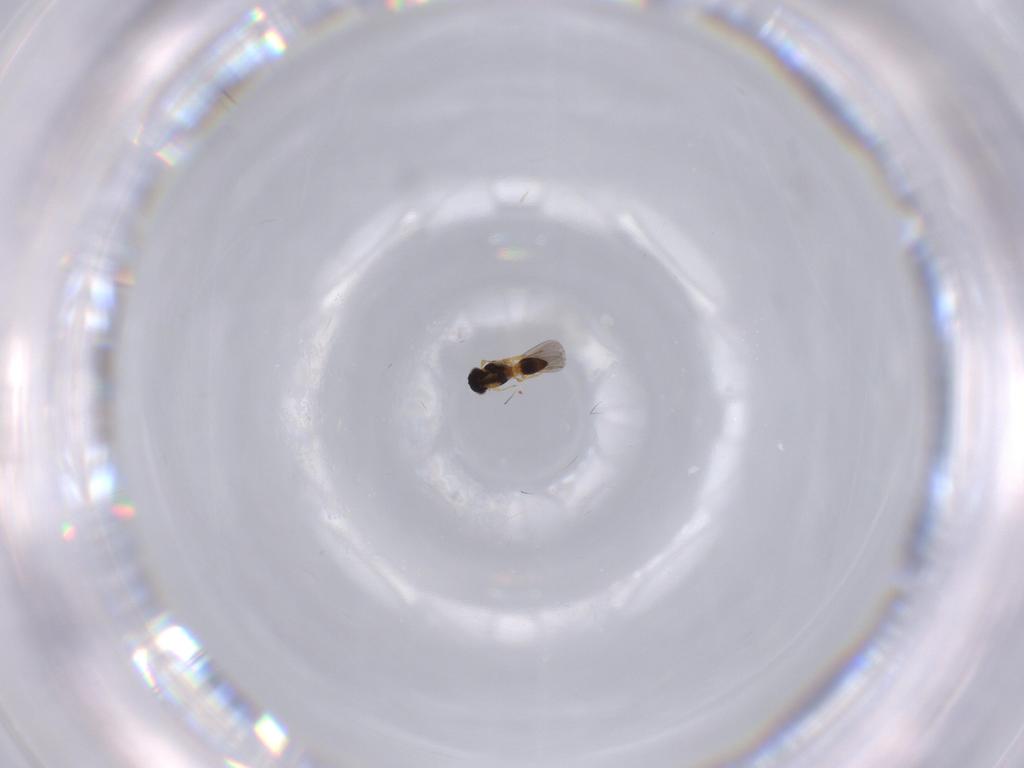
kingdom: Animalia
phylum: Arthropoda
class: Insecta
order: Hymenoptera
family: Platygastridae
